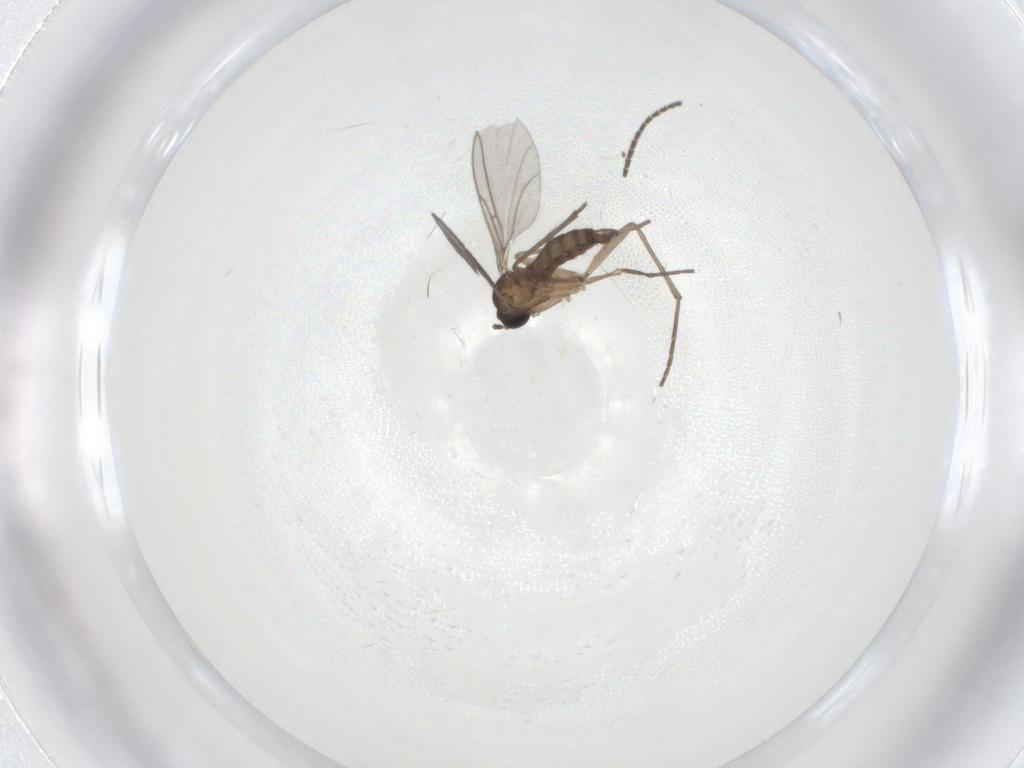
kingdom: Animalia
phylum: Arthropoda
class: Insecta
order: Diptera
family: Sciaridae
